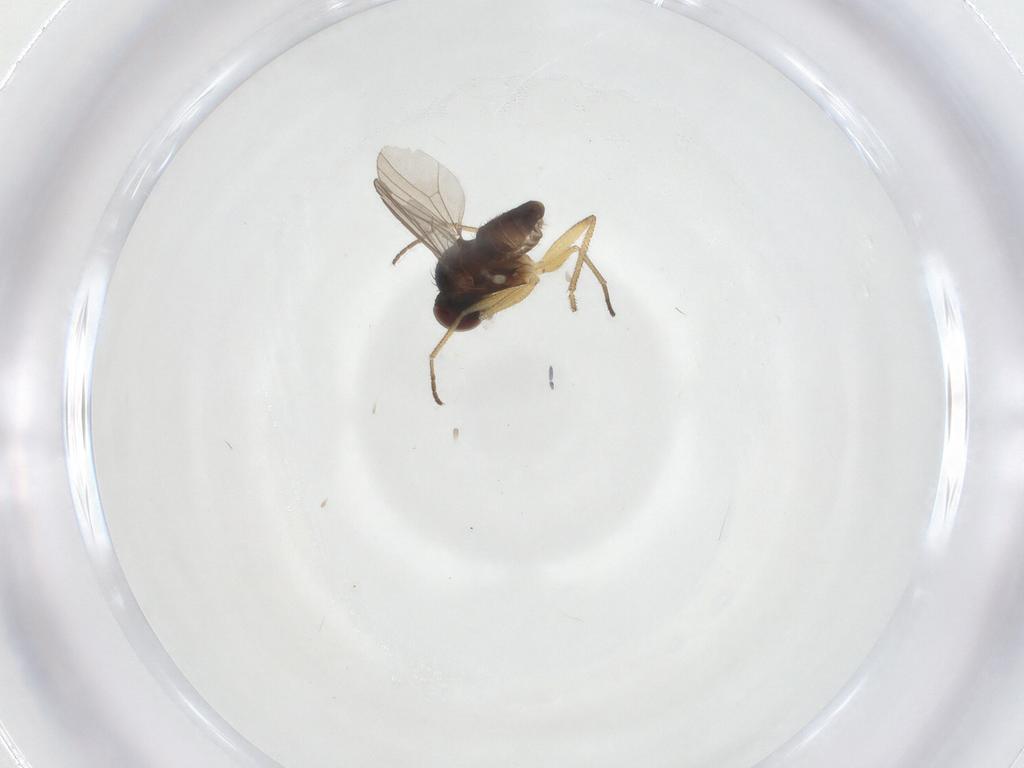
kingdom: Animalia
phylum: Arthropoda
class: Insecta
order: Diptera
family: Dolichopodidae
